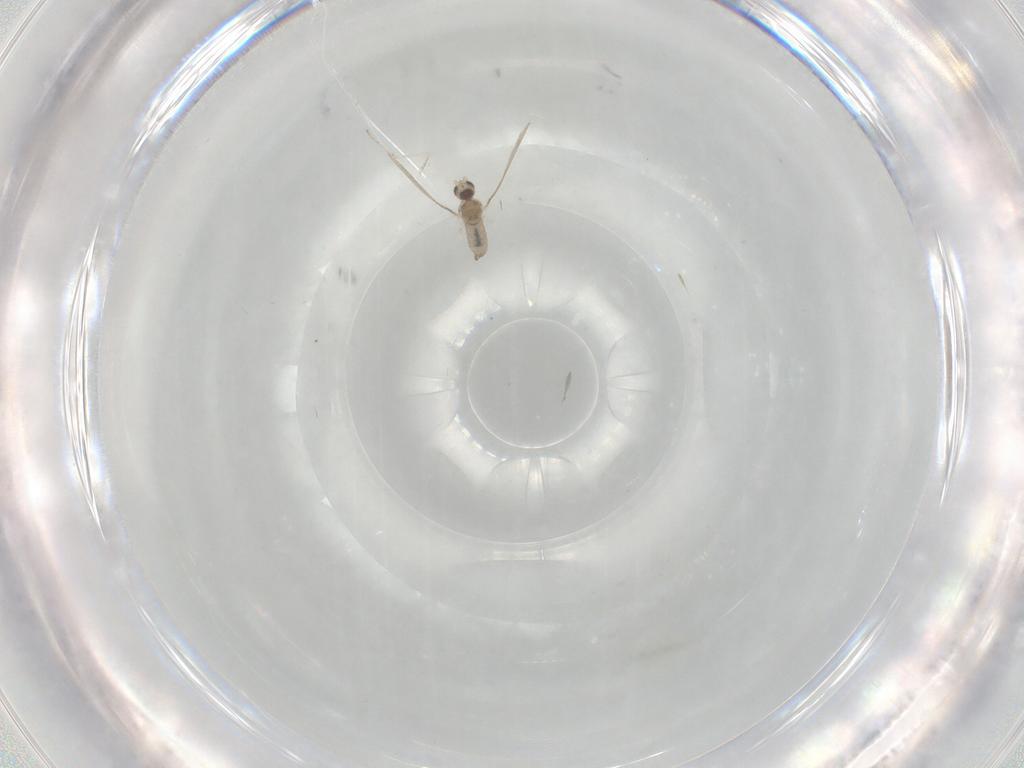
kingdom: Animalia
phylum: Arthropoda
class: Insecta
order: Diptera
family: Cecidomyiidae
